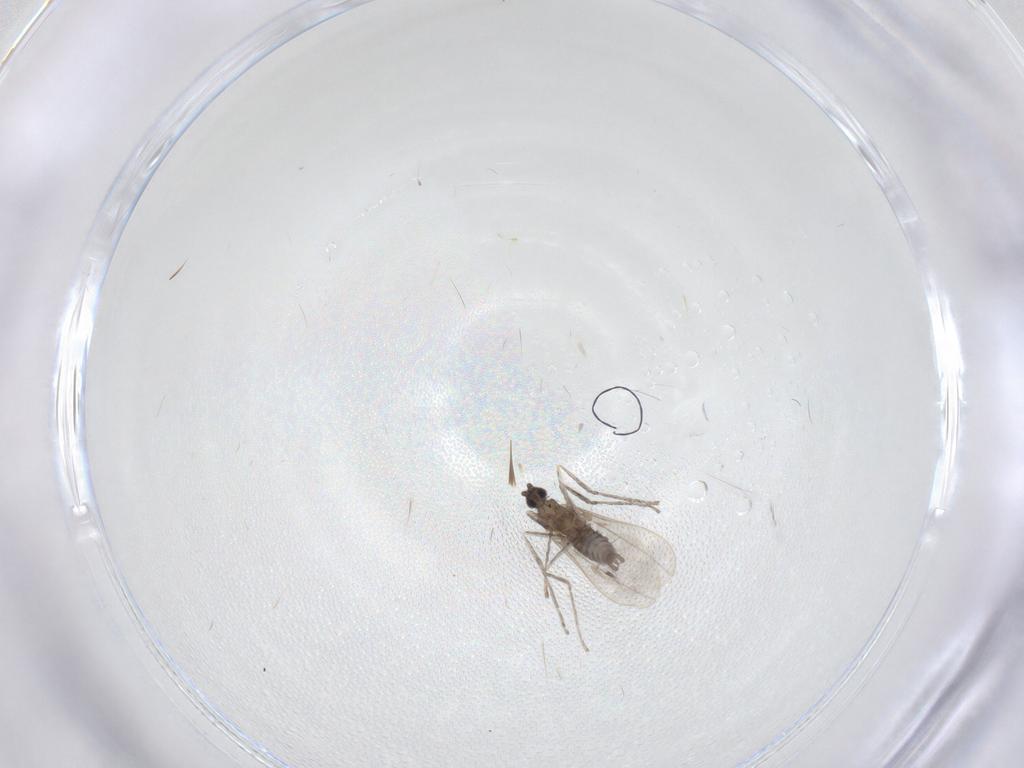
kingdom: Animalia
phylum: Arthropoda
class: Insecta
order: Diptera
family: Cecidomyiidae
